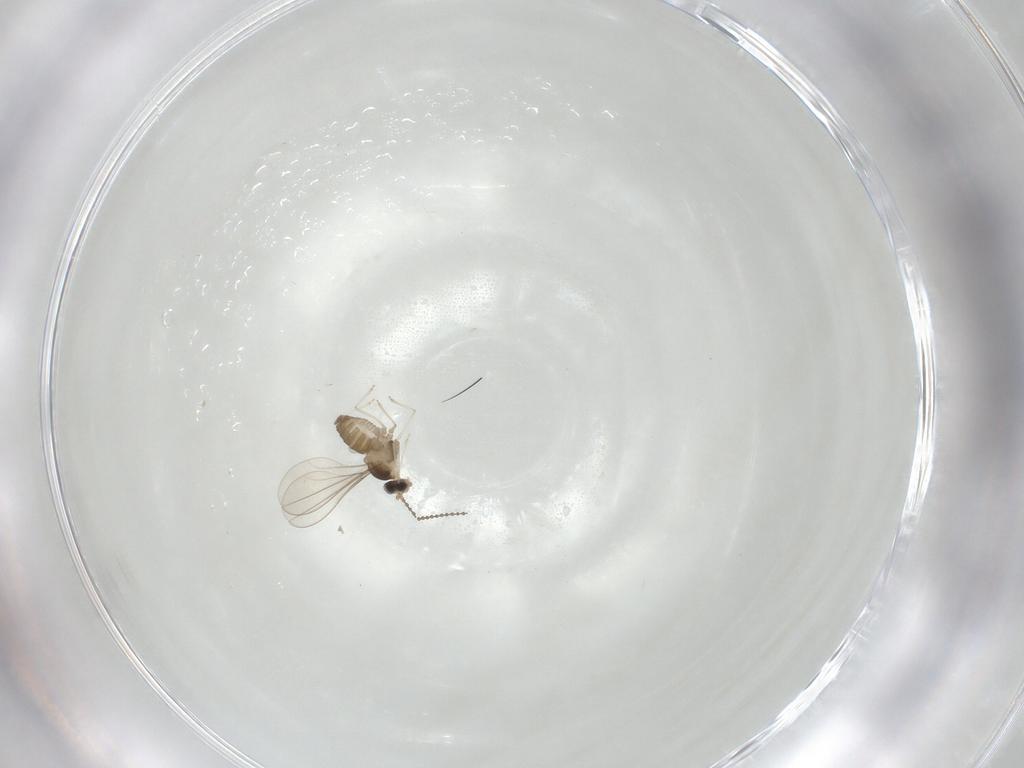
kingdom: Animalia
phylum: Arthropoda
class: Insecta
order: Diptera
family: Cecidomyiidae
